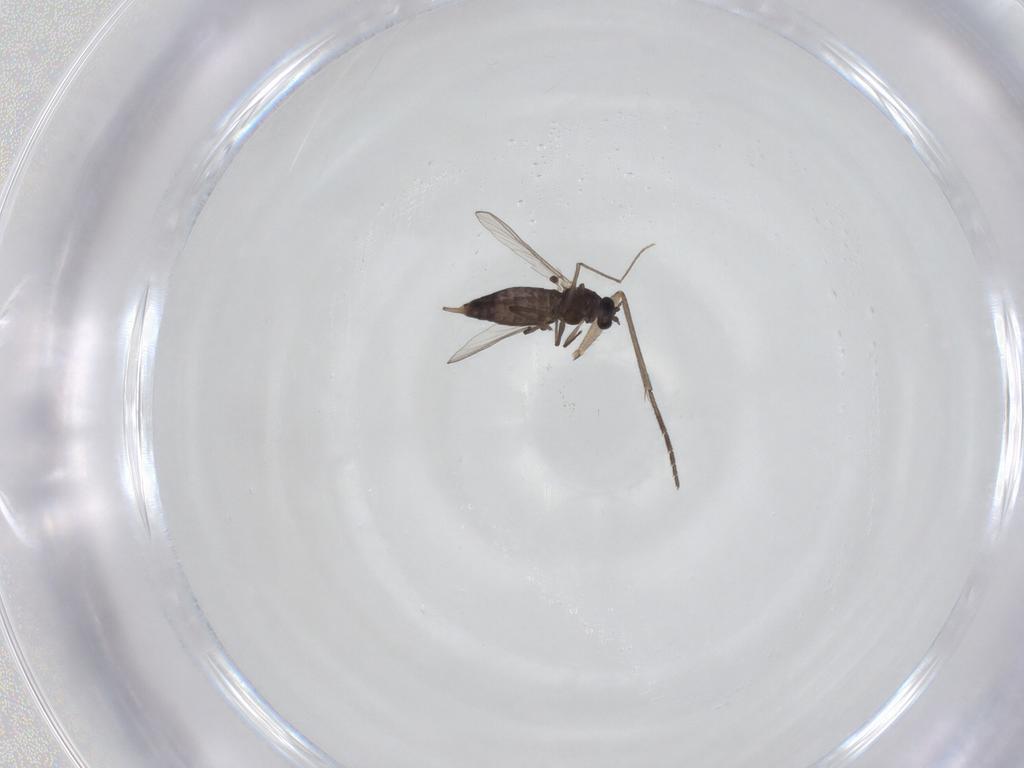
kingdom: Animalia
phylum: Arthropoda
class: Insecta
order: Diptera
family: Chironomidae
